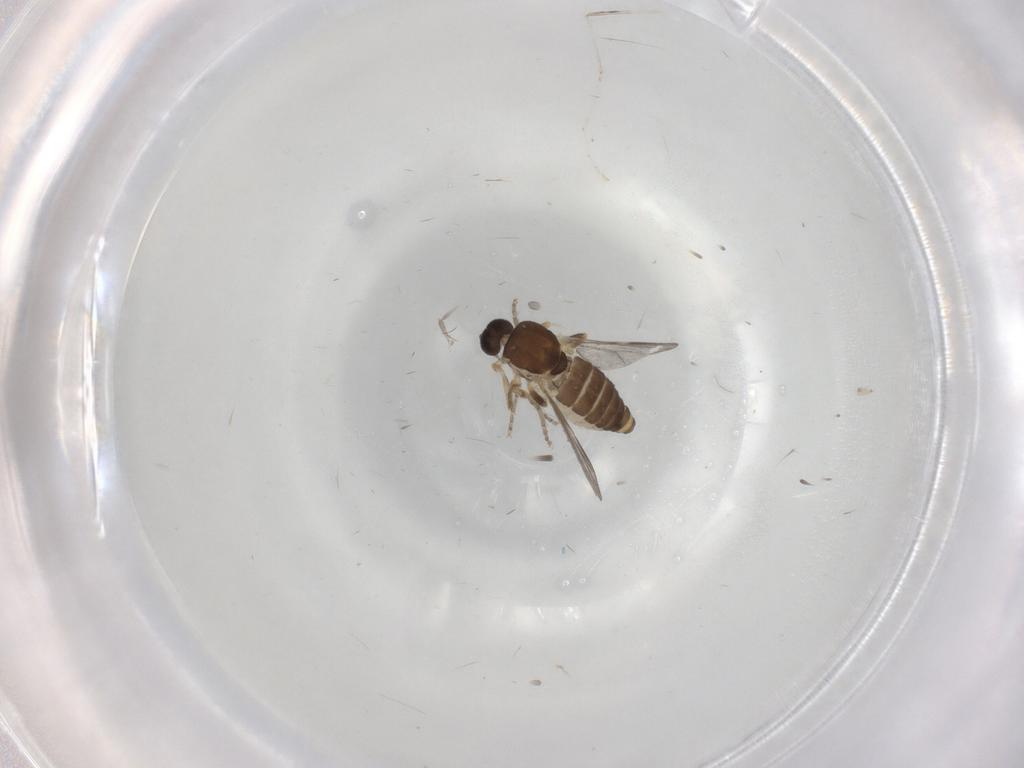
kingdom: Animalia
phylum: Arthropoda
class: Insecta
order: Diptera
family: Ceratopogonidae
